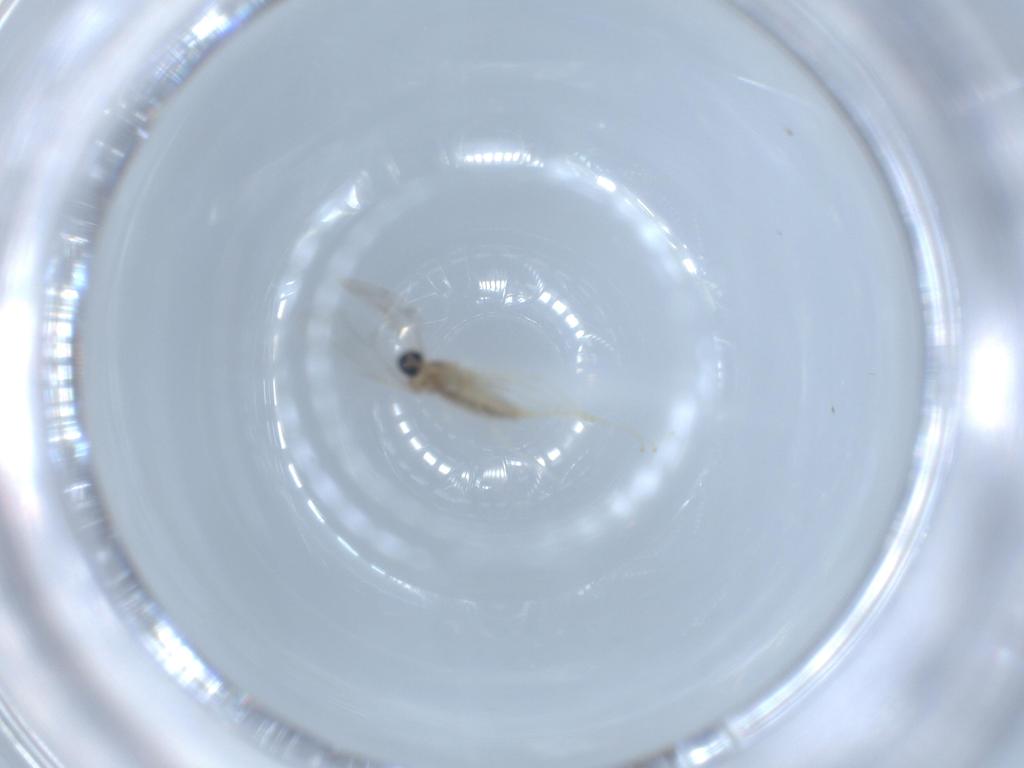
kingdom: Animalia
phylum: Arthropoda
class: Insecta
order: Diptera
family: Cecidomyiidae
